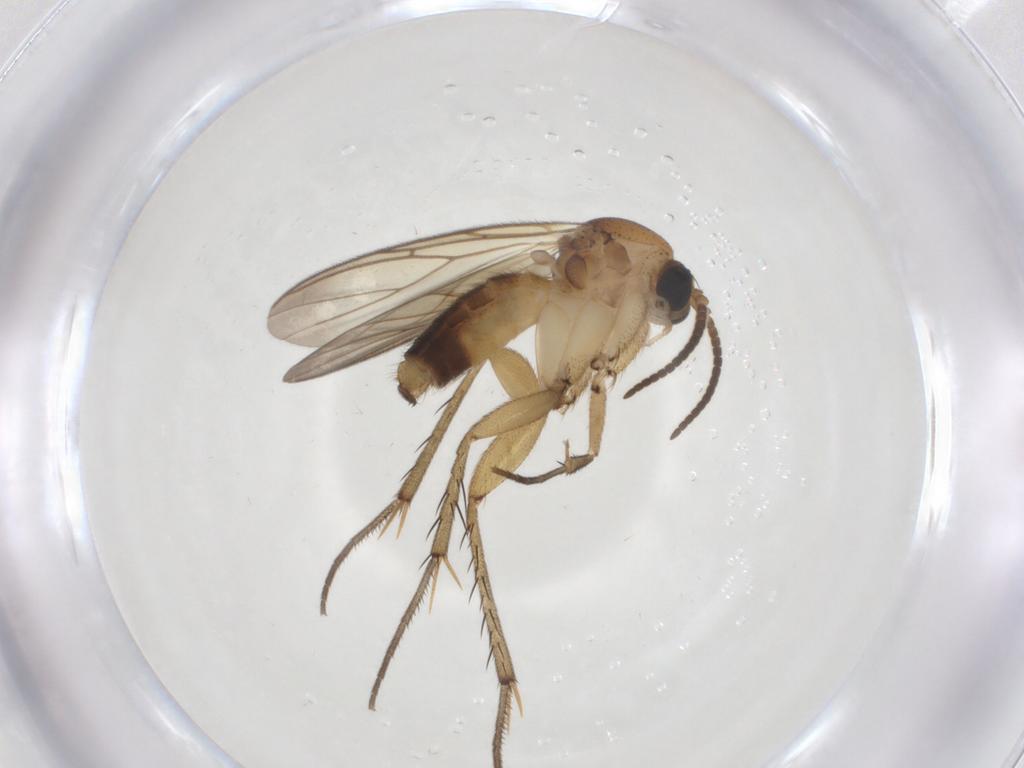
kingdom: Animalia
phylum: Arthropoda
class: Insecta
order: Diptera
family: Mycetophilidae
